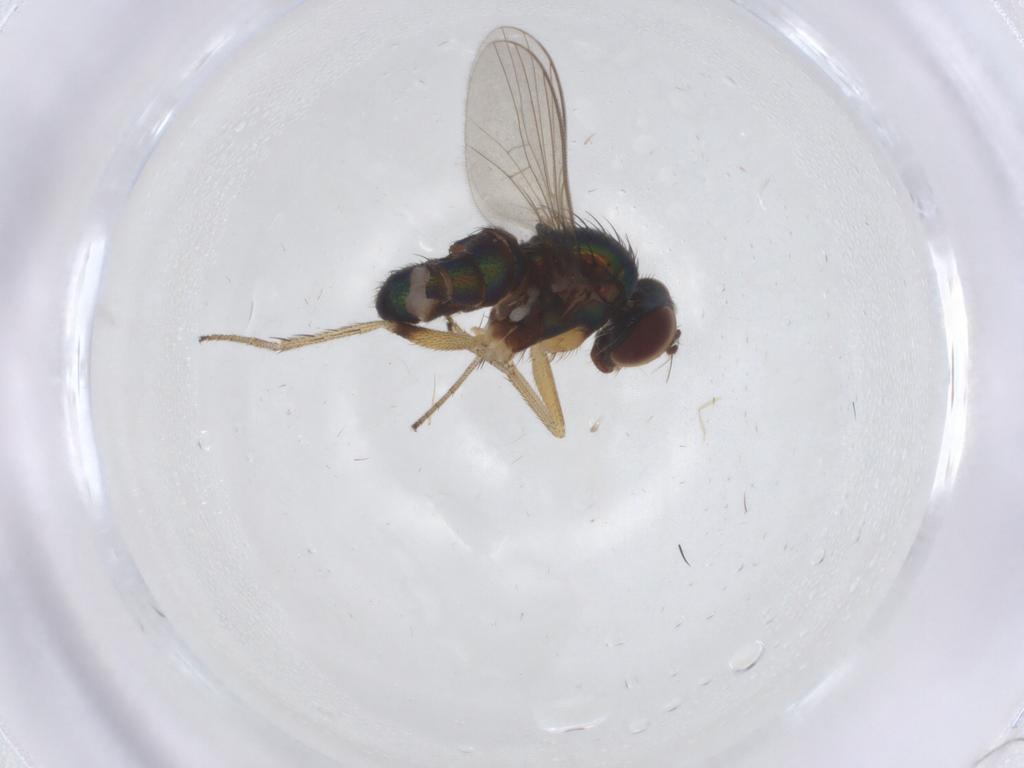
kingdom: Animalia
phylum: Arthropoda
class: Insecta
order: Diptera
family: Dolichopodidae
